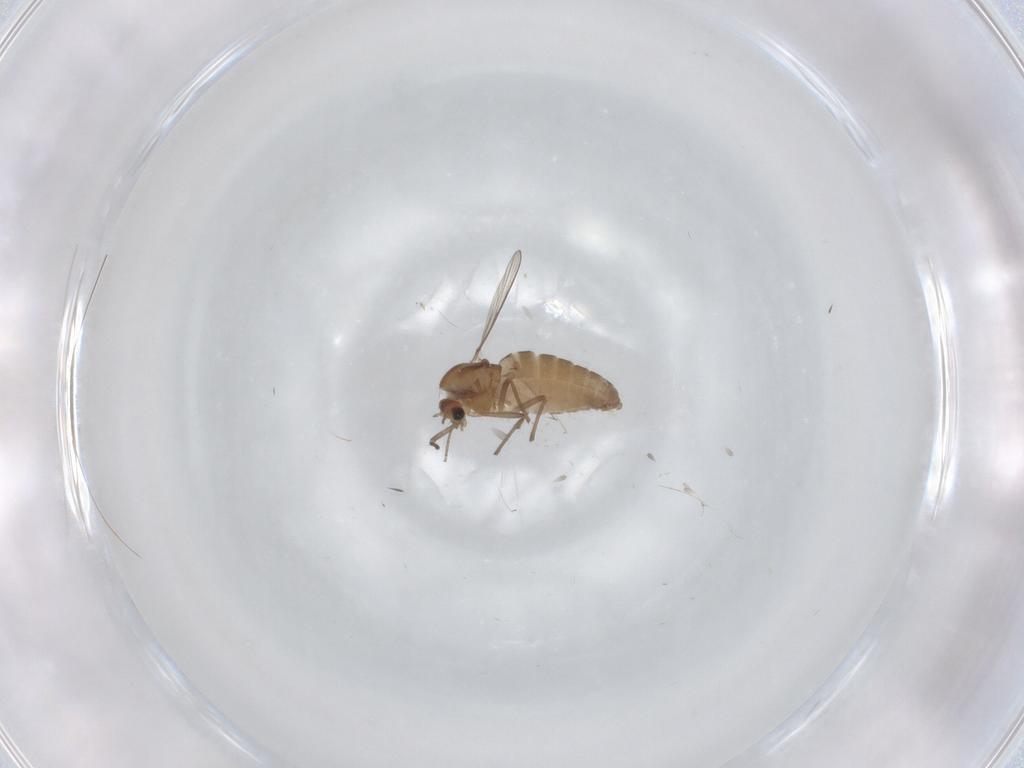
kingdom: Animalia
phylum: Arthropoda
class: Insecta
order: Diptera
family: Chironomidae
